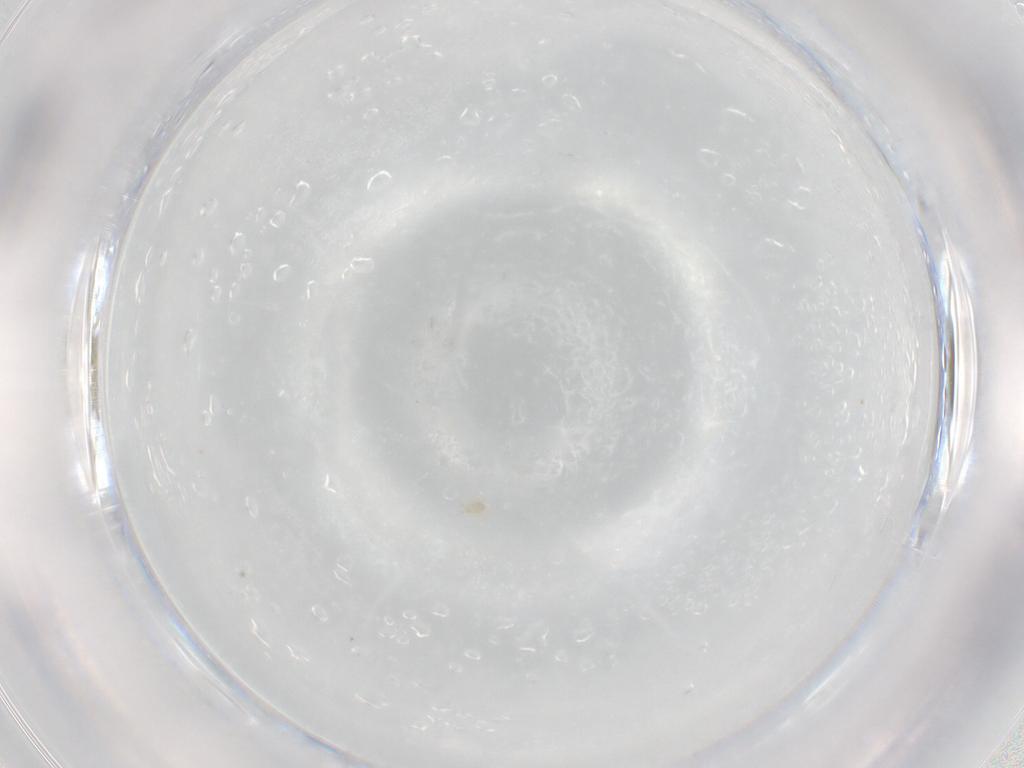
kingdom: Animalia
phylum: Arthropoda
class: Arachnida
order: Trombidiformes
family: Pygmephoridae
